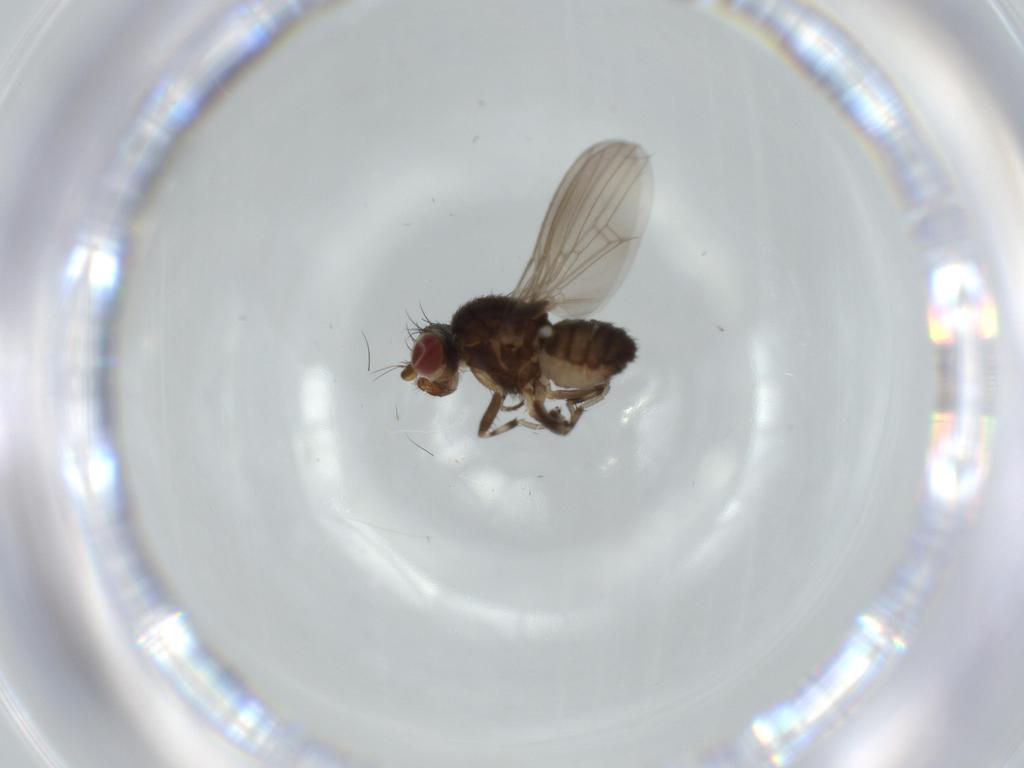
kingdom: Animalia
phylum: Arthropoda
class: Insecta
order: Diptera
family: Heleomyzidae
